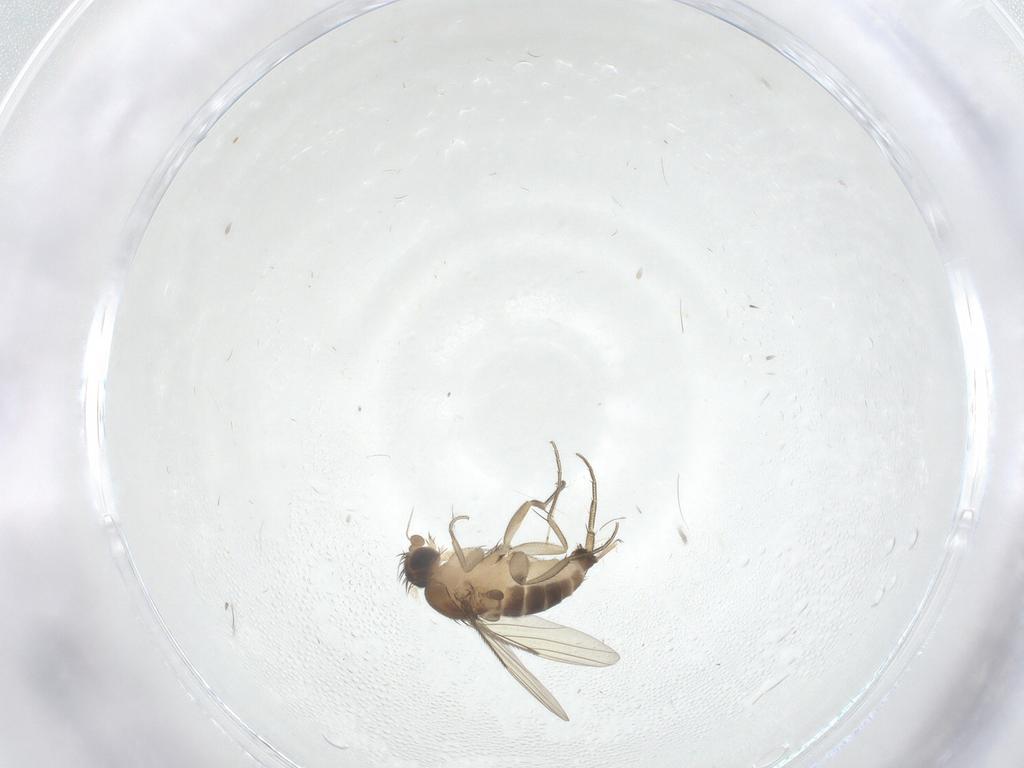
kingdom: Animalia
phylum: Arthropoda
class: Insecta
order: Diptera
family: Phoridae
